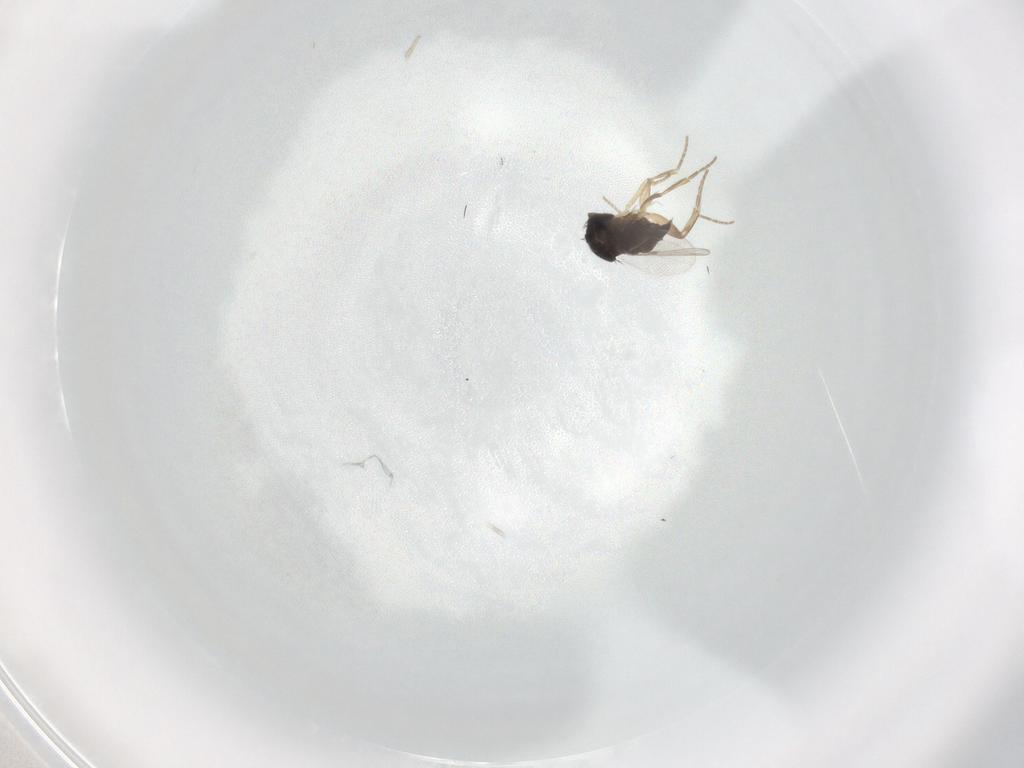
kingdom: Animalia
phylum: Arthropoda
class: Insecta
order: Diptera
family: Phoridae
